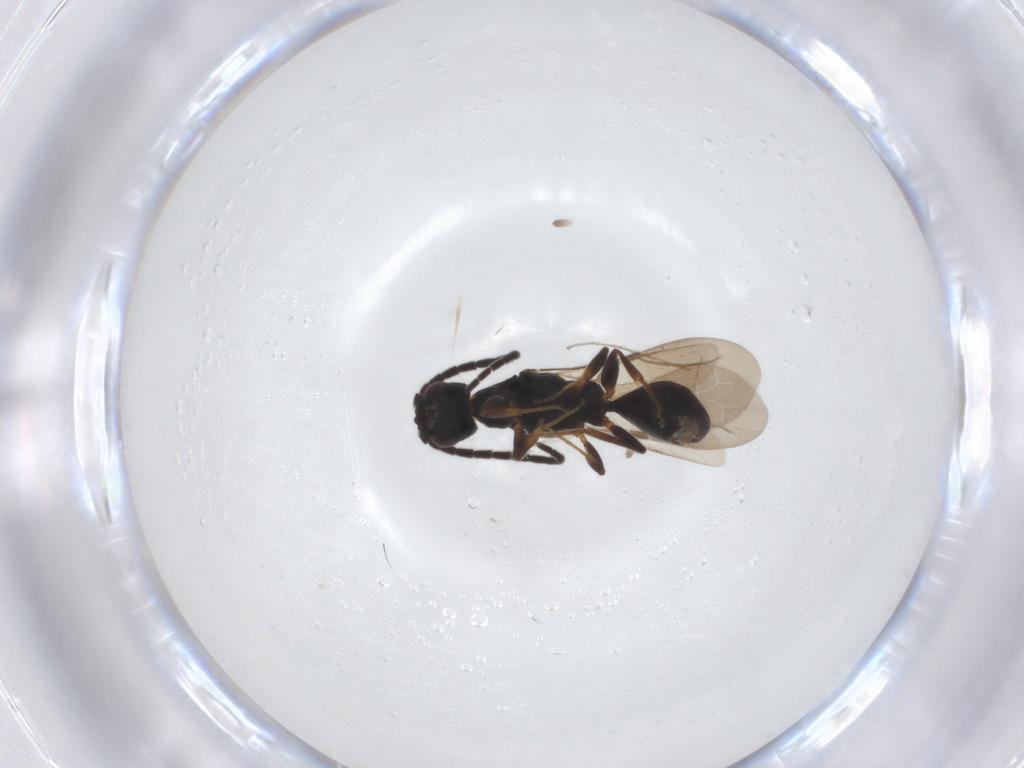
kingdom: Animalia
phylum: Arthropoda
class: Insecta
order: Hymenoptera
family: Bethylidae
